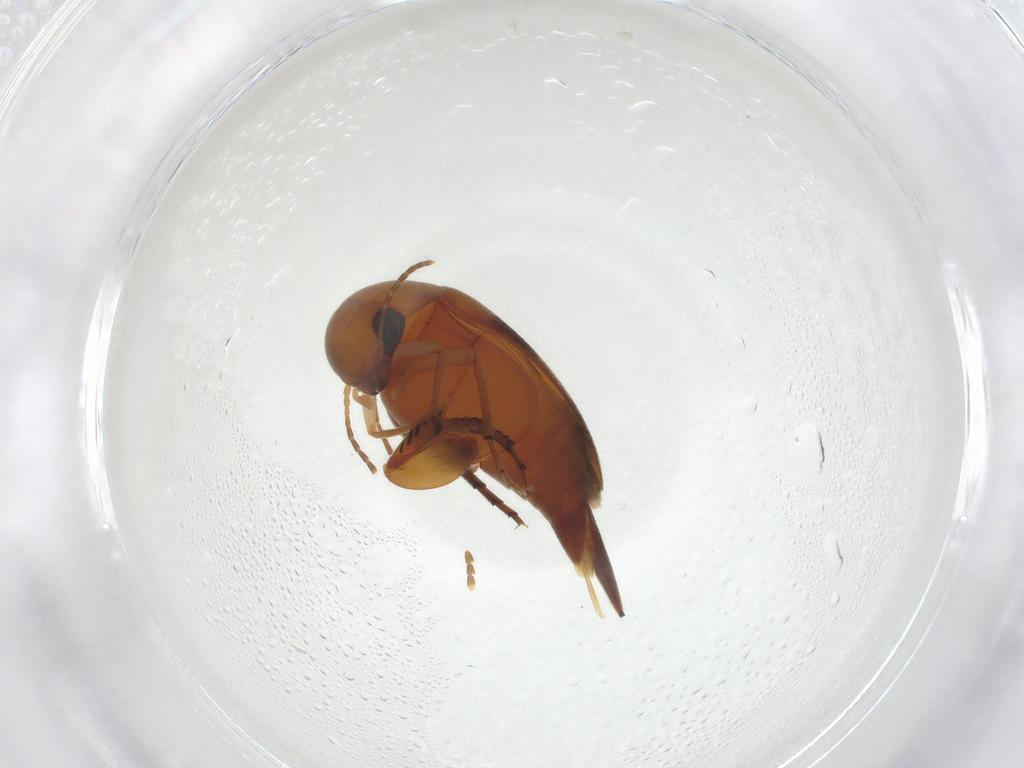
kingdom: Animalia
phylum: Arthropoda
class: Insecta
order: Coleoptera
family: Mordellidae
